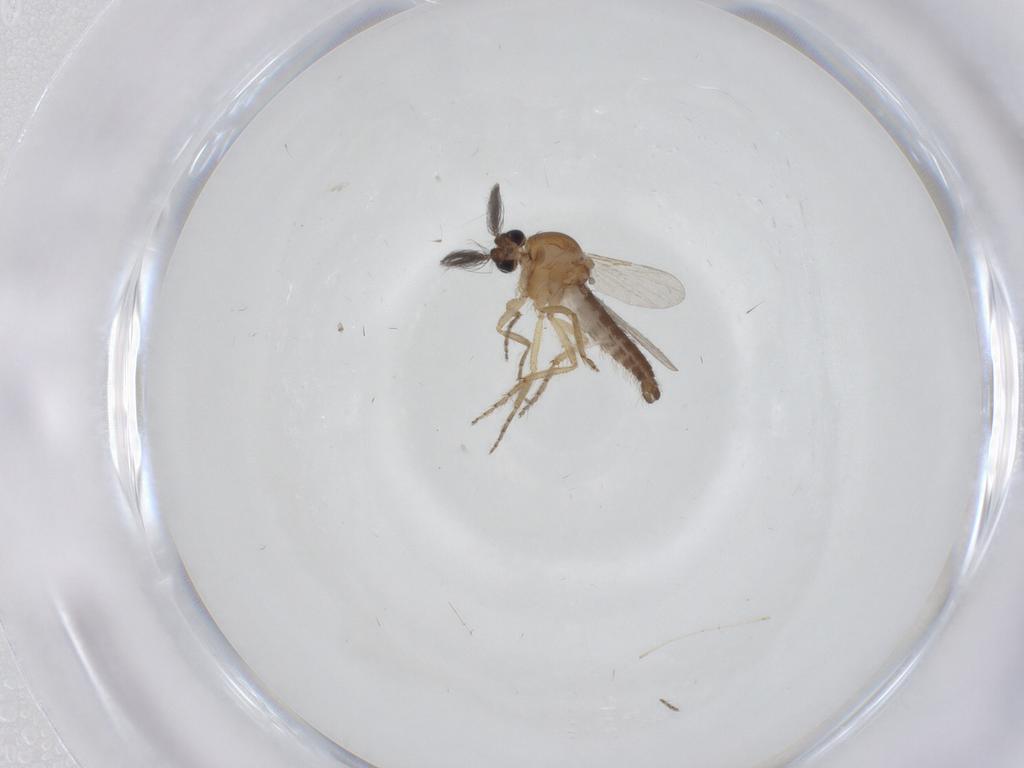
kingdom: Animalia
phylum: Arthropoda
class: Insecta
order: Diptera
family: Ceratopogonidae
